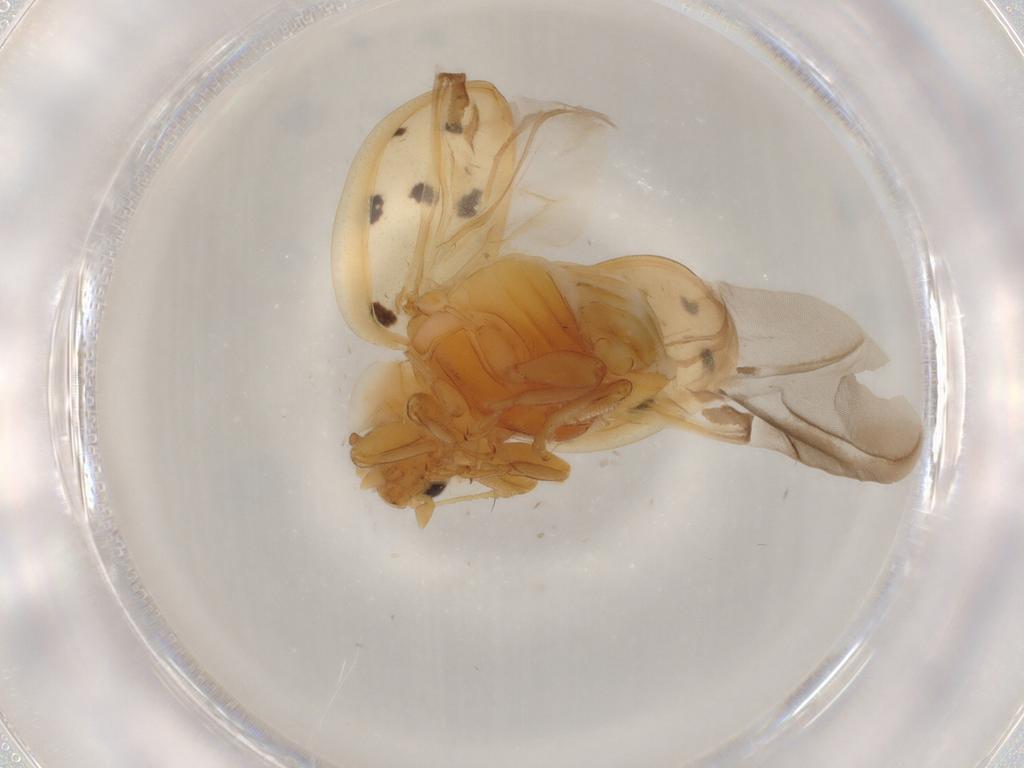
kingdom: Animalia
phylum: Arthropoda
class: Insecta
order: Coleoptera
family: Coccinellidae
